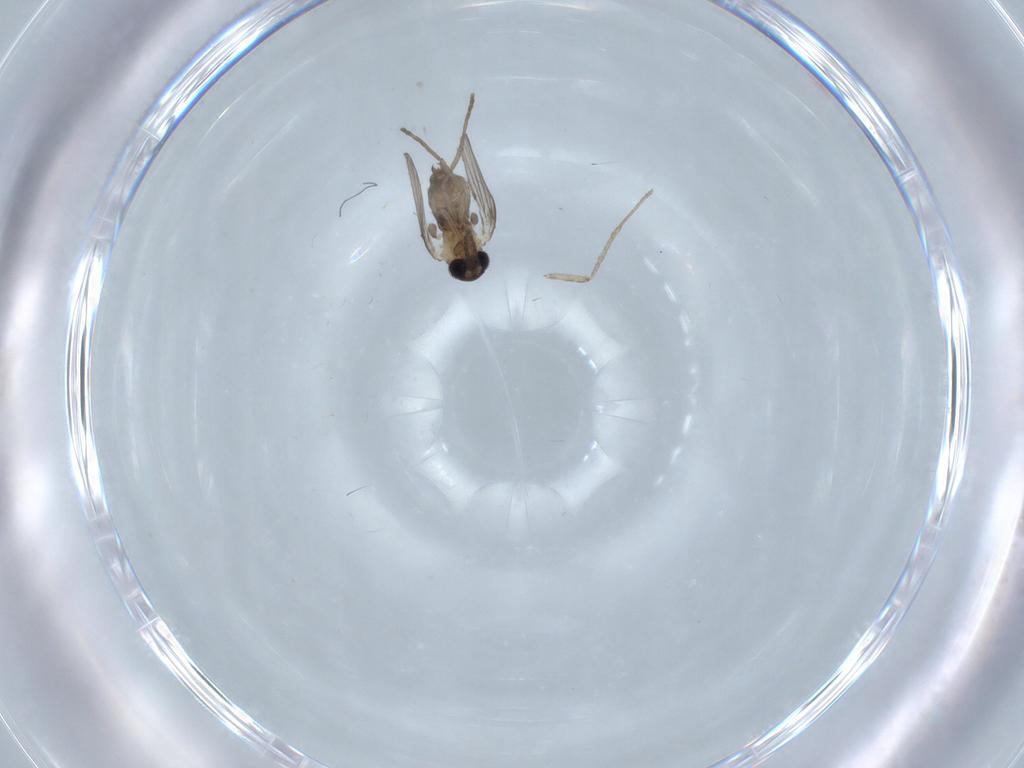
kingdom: Animalia
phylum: Arthropoda
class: Insecta
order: Diptera
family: Chironomidae
